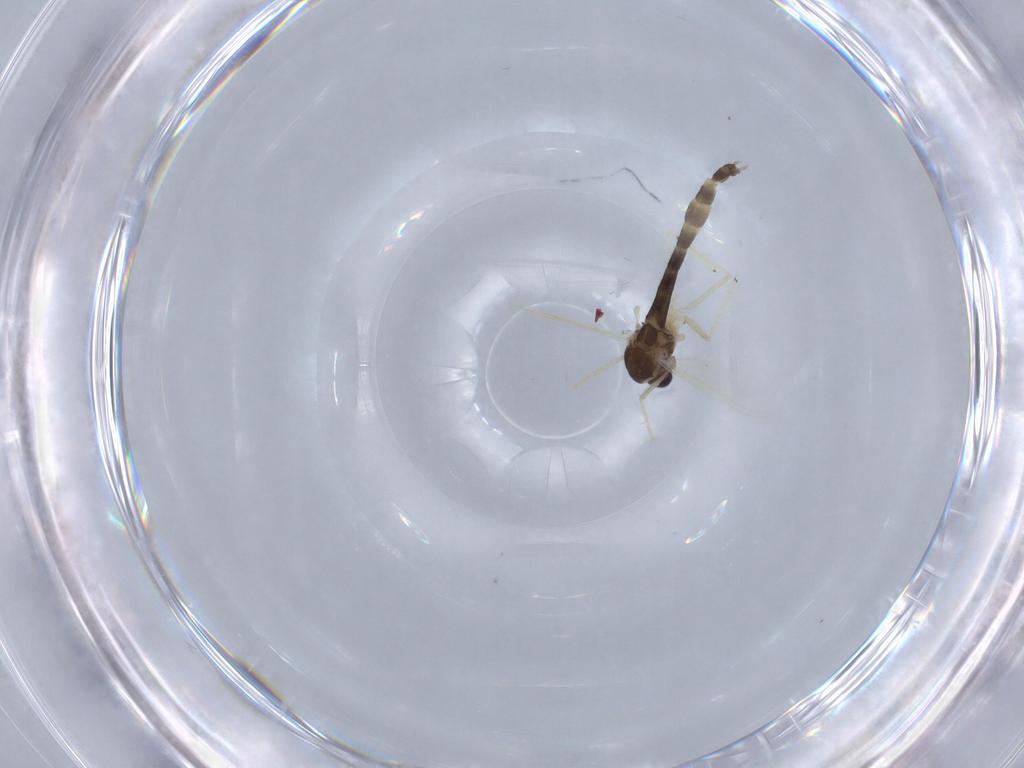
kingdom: Animalia
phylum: Arthropoda
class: Insecta
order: Diptera
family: Chironomidae
